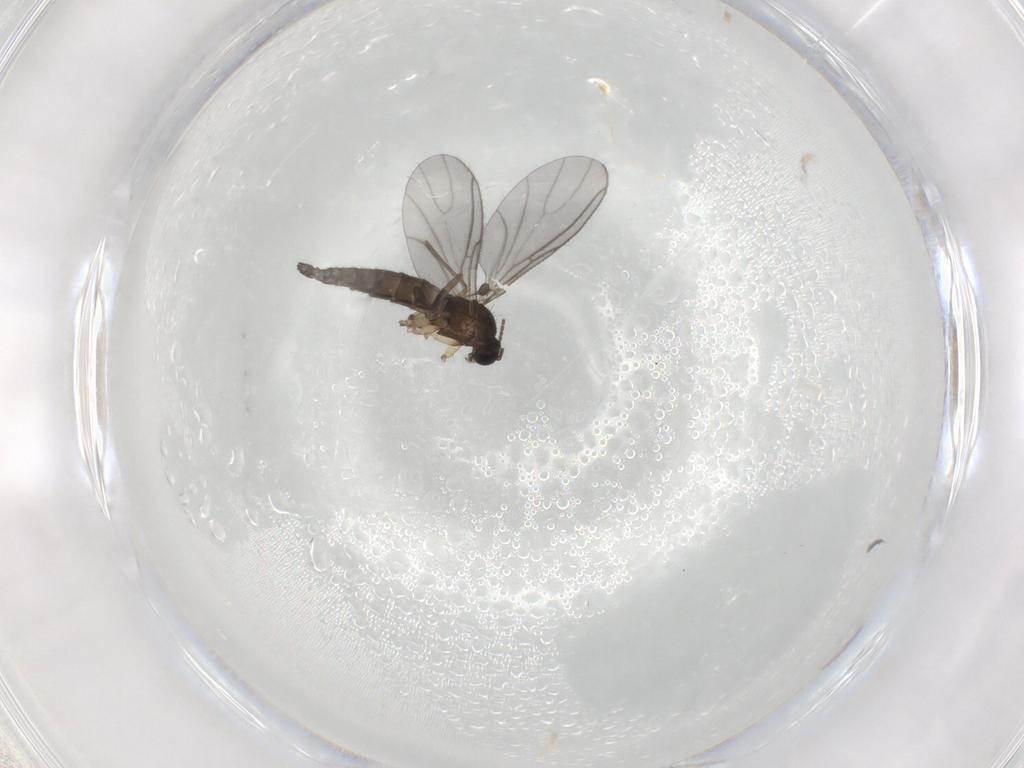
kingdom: Animalia
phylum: Arthropoda
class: Insecta
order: Diptera
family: Sciaridae
